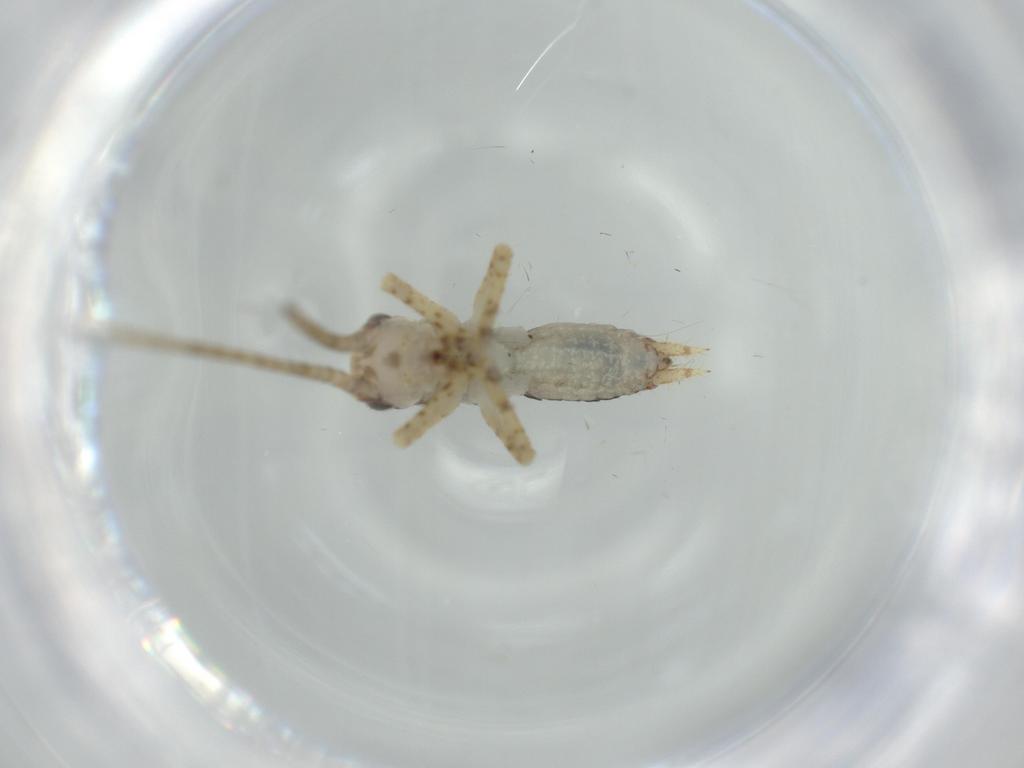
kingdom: Animalia
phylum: Arthropoda
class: Insecta
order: Orthoptera
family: Gryllidae
